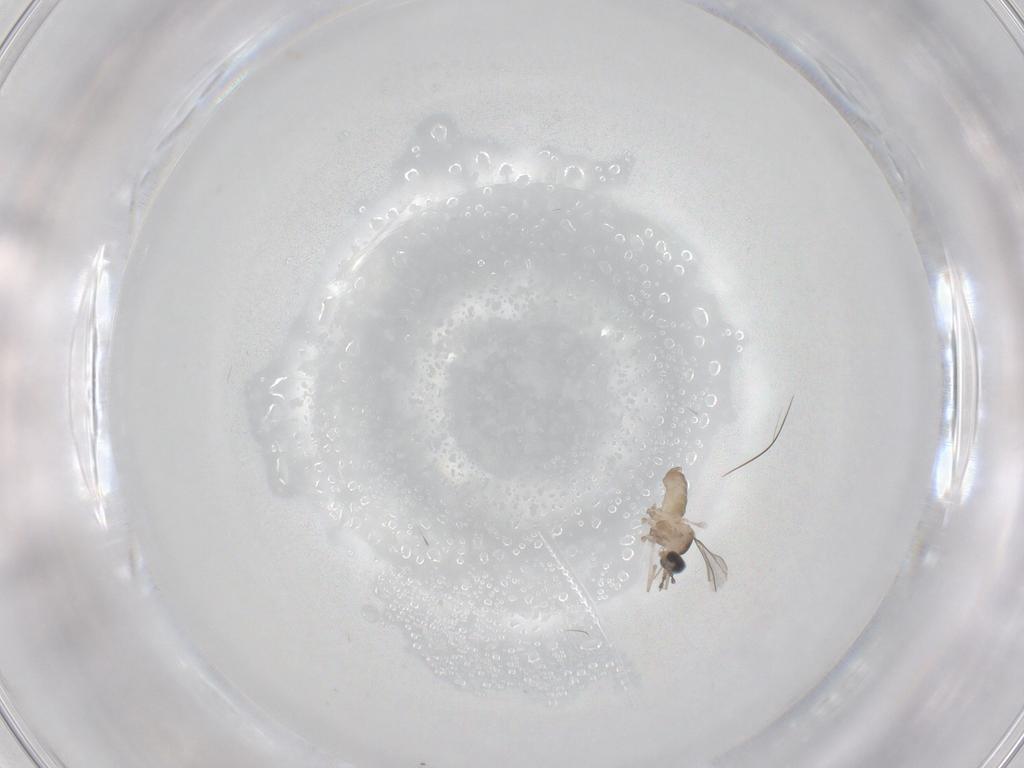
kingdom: Animalia
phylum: Arthropoda
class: Insecta
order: Diptera
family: Cecidomyiidae
